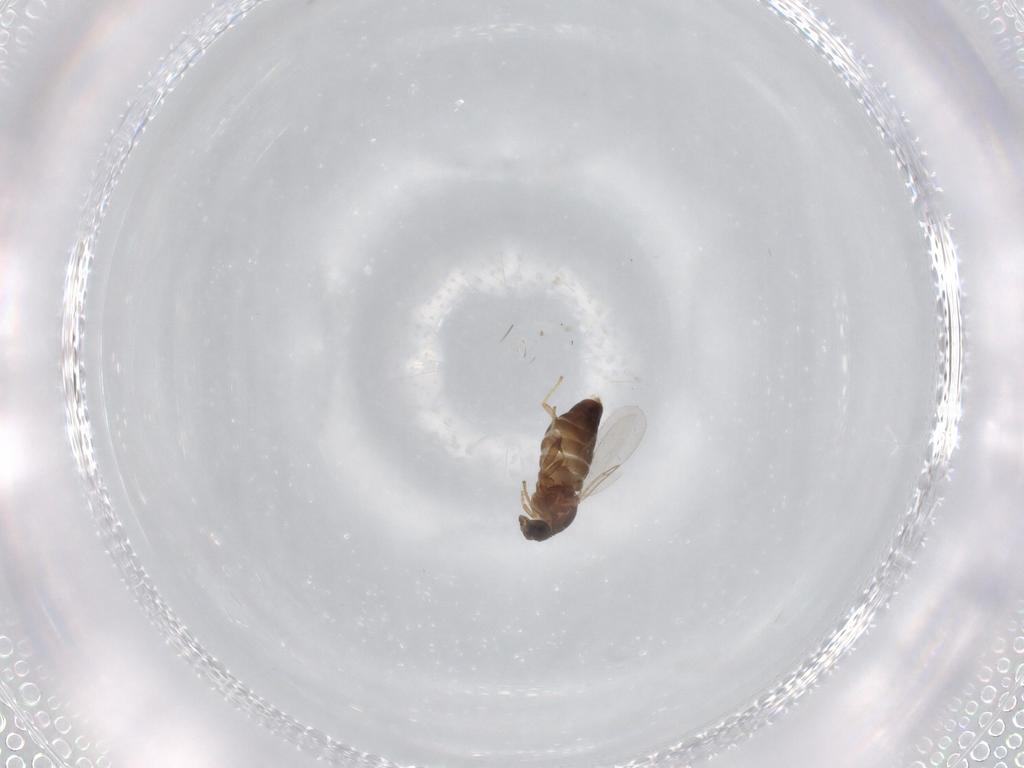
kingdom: Animalia
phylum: Arthropoda
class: Insecta
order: Diptera
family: Scatopsidae
